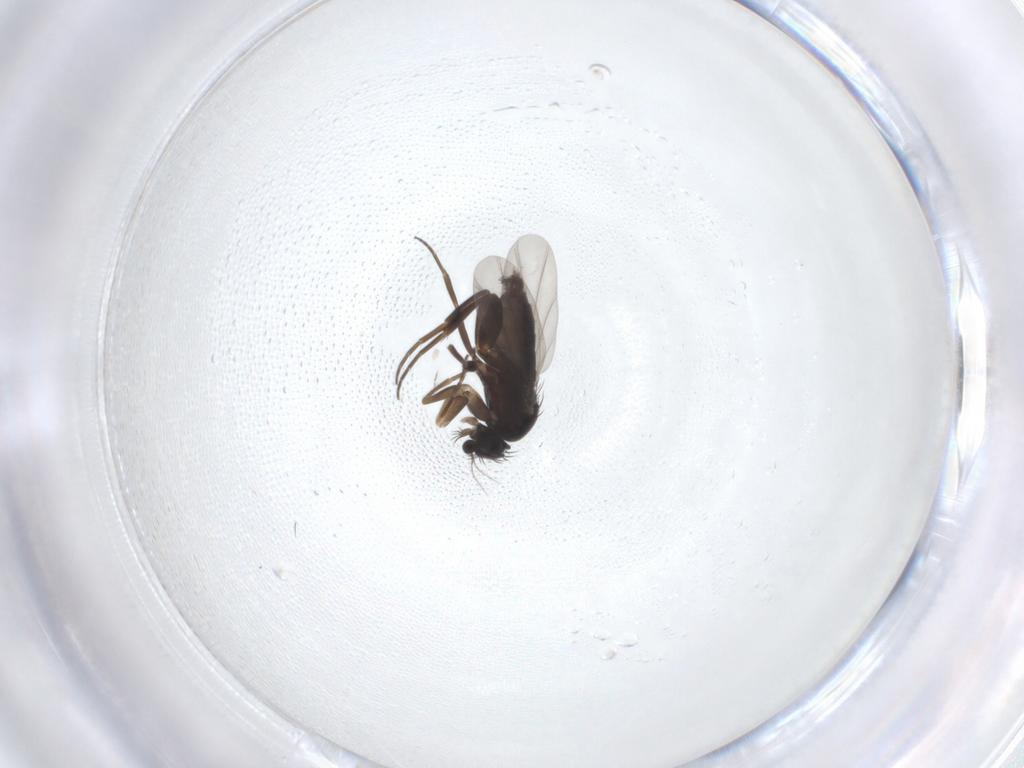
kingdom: Animalia
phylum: Arthropoda
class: Insecta
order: Diptera
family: Phoridae
